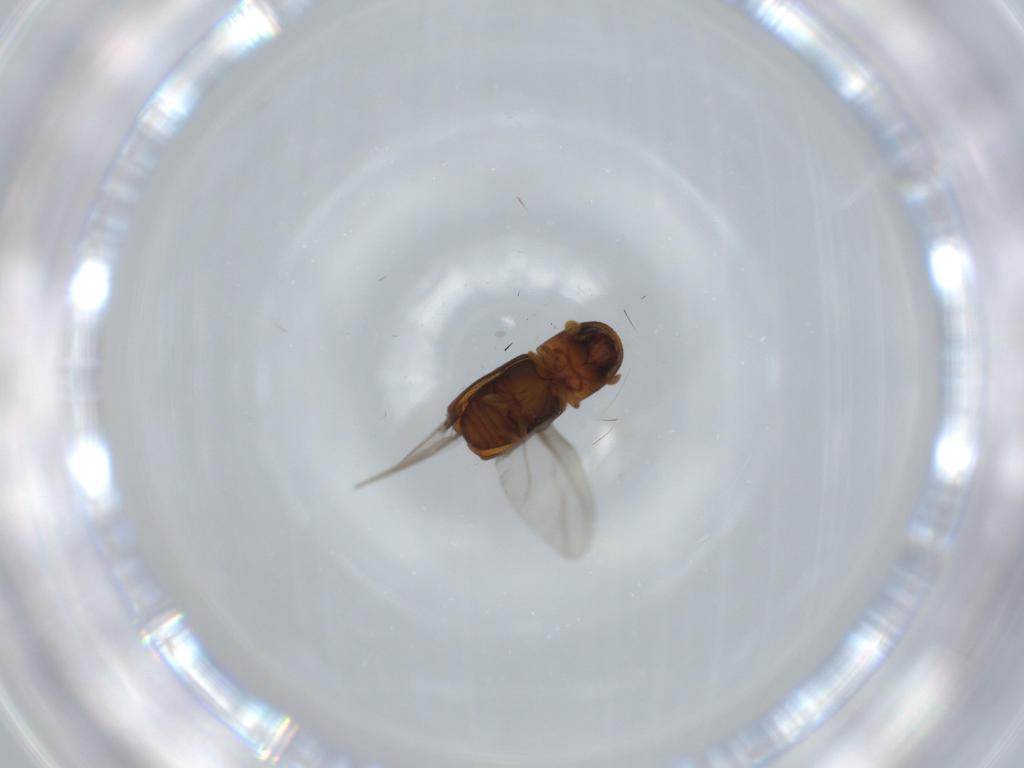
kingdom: Animalia
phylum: Arthropoda
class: Insecta
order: Coleoptera
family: Curculionidae
